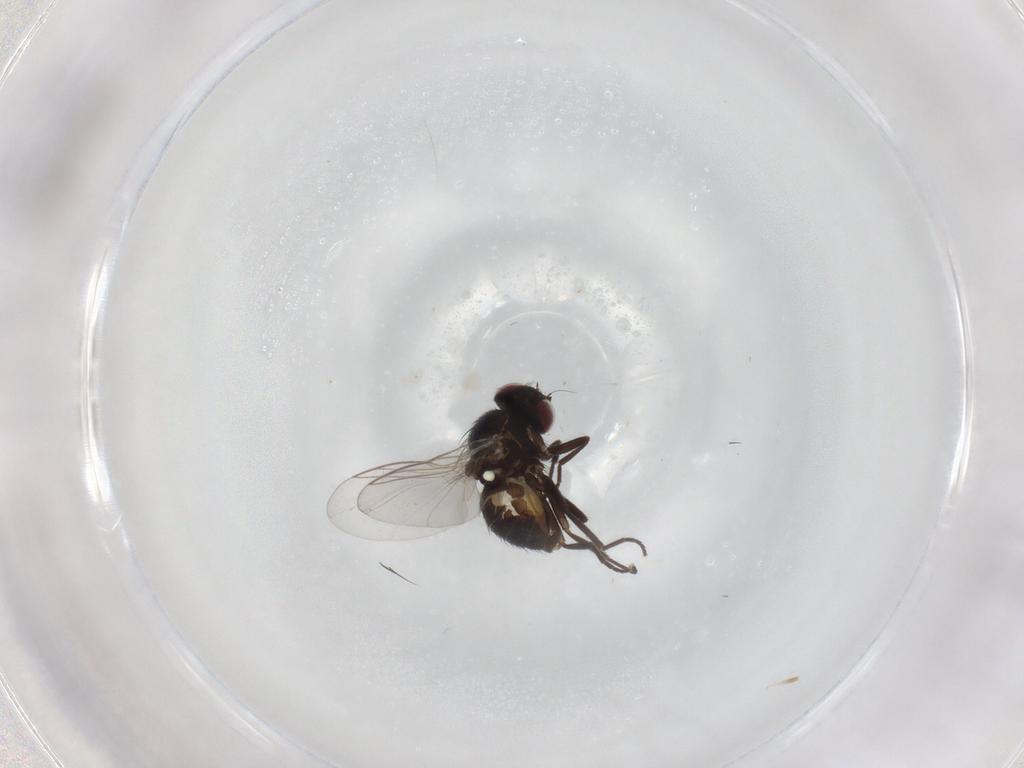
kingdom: Animalia
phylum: Arthropoda
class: Insecta
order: Diptera
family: Agromyzidae
